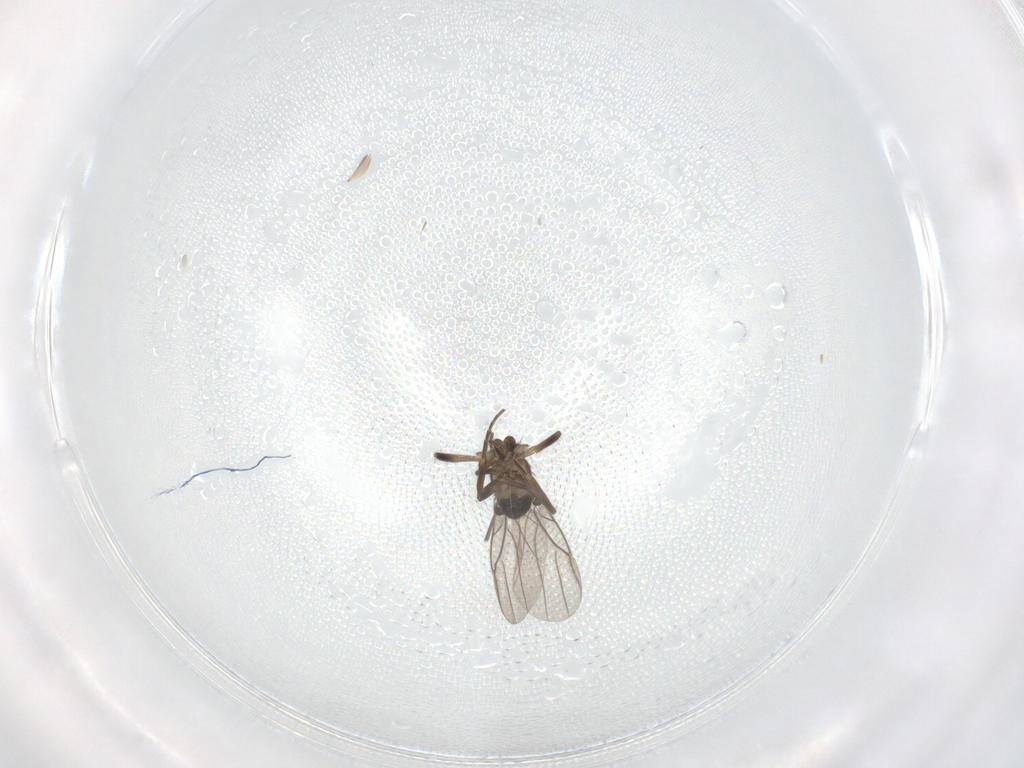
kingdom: Animalia
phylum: Arthropoda
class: Insecta
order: Diptera
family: Phoridae
